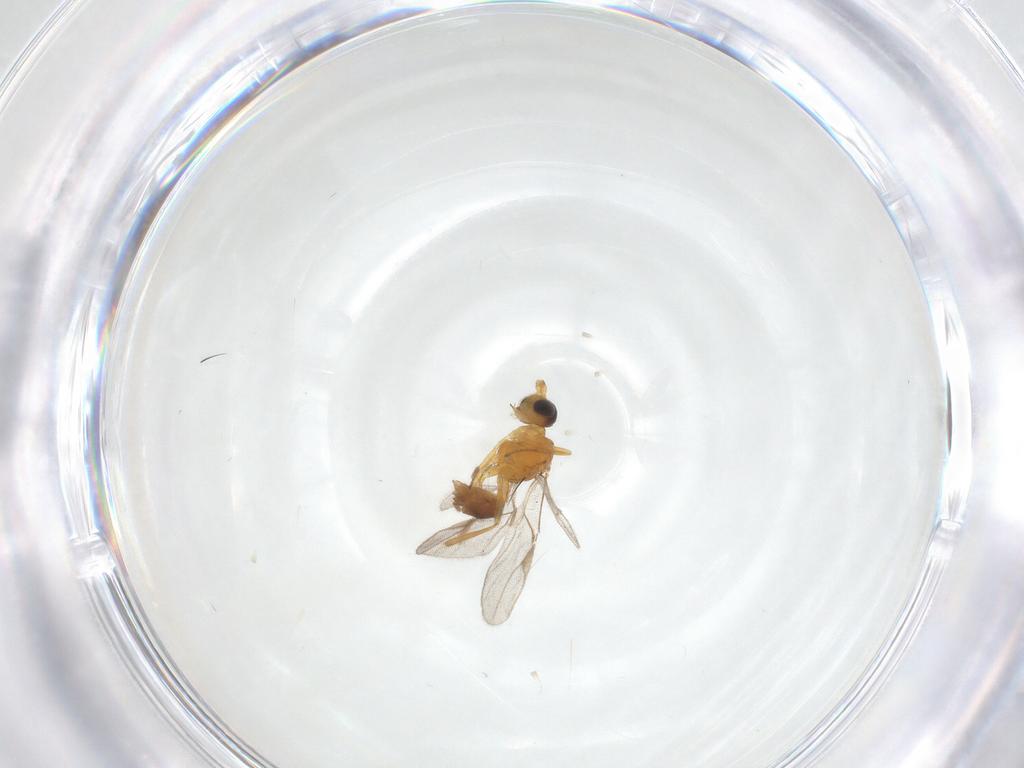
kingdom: Animalia
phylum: Arthropoda
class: Insecta
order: Hymenoptera
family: Braconidae
